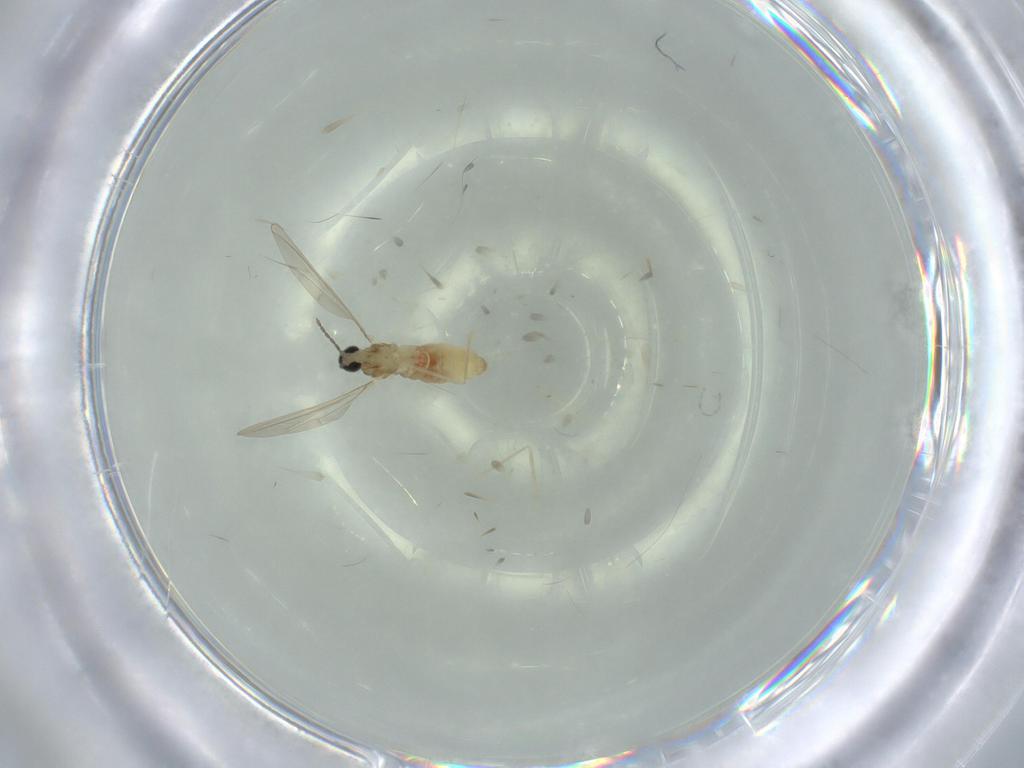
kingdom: Animalia
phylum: Arthropoda
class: Insecta
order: Diptera
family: Cecidomyiidae
